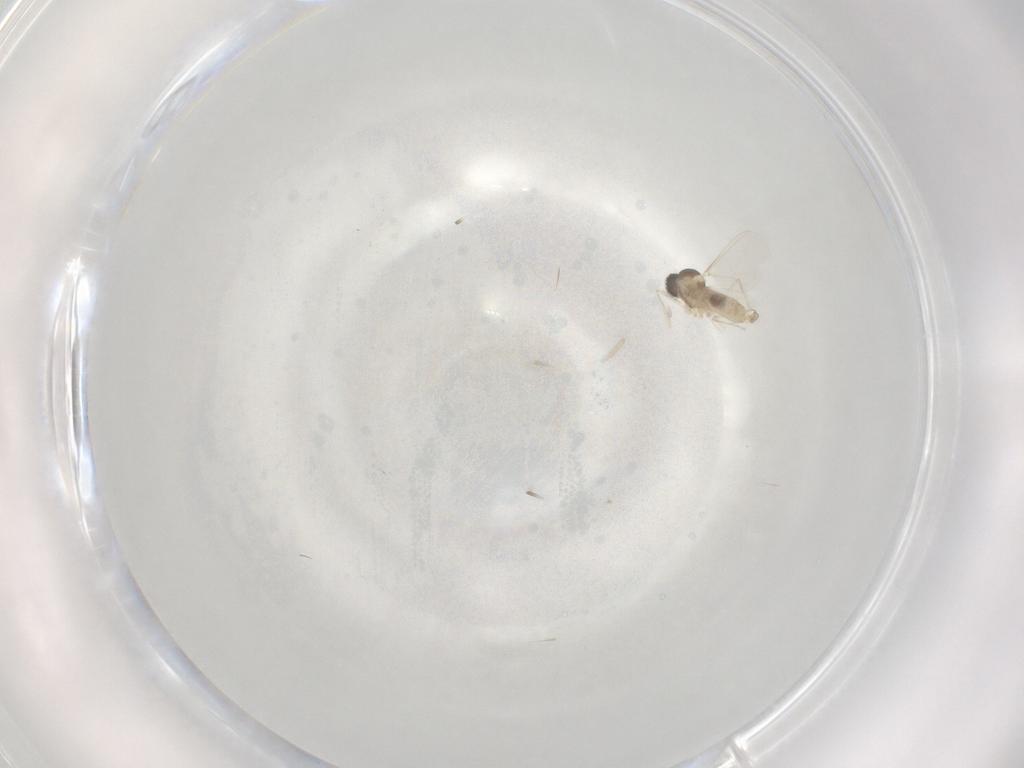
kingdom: Animalia
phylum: Arthropoda
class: Insecta
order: Diptera
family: Cecidomyiidae
